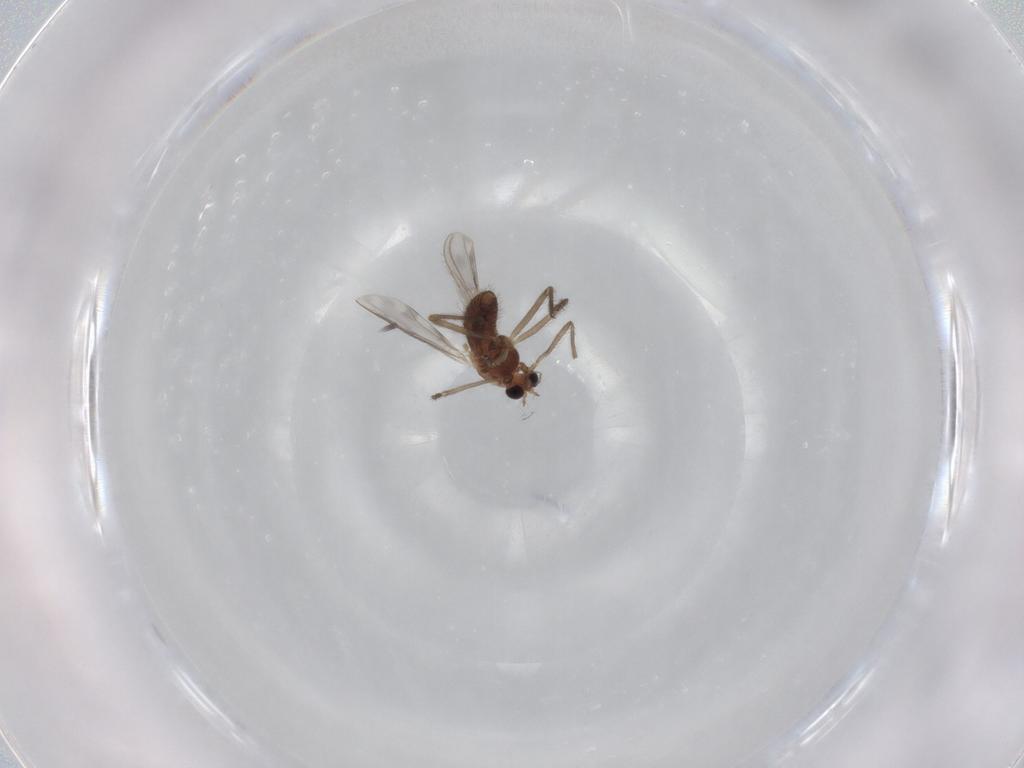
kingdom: Animalia
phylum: Arthropoda
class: Insecta
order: Diptera
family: Chironomidae
